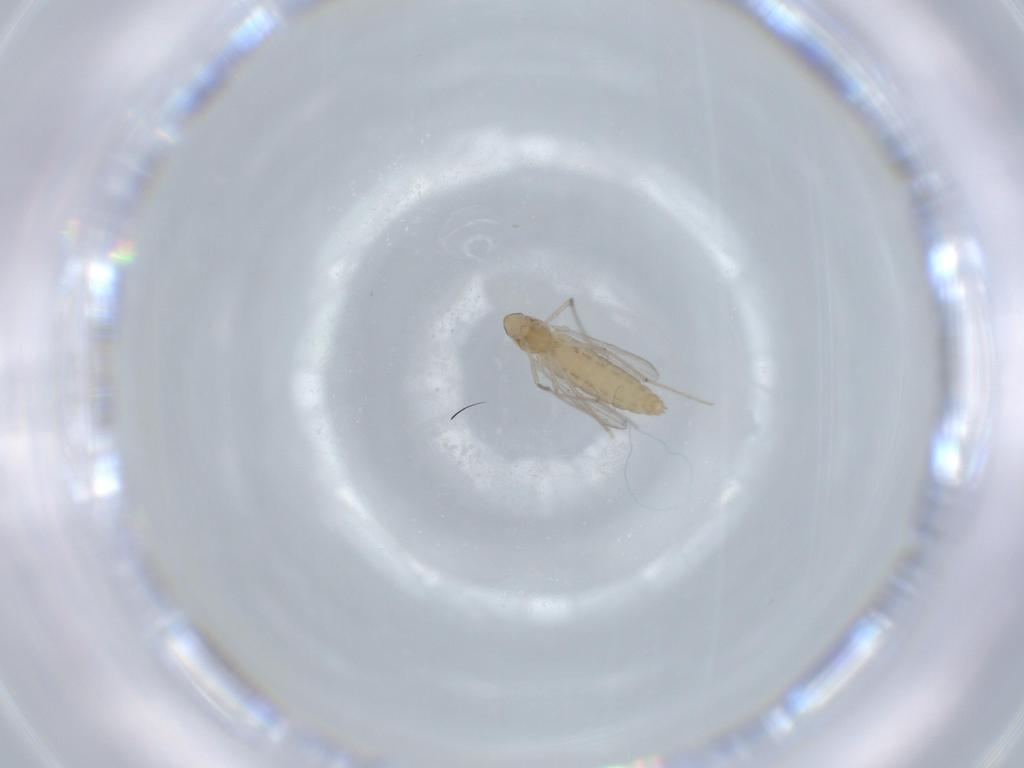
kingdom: Animalia
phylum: Arthropoda
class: Insecta
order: Diptera
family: Chironomidae
